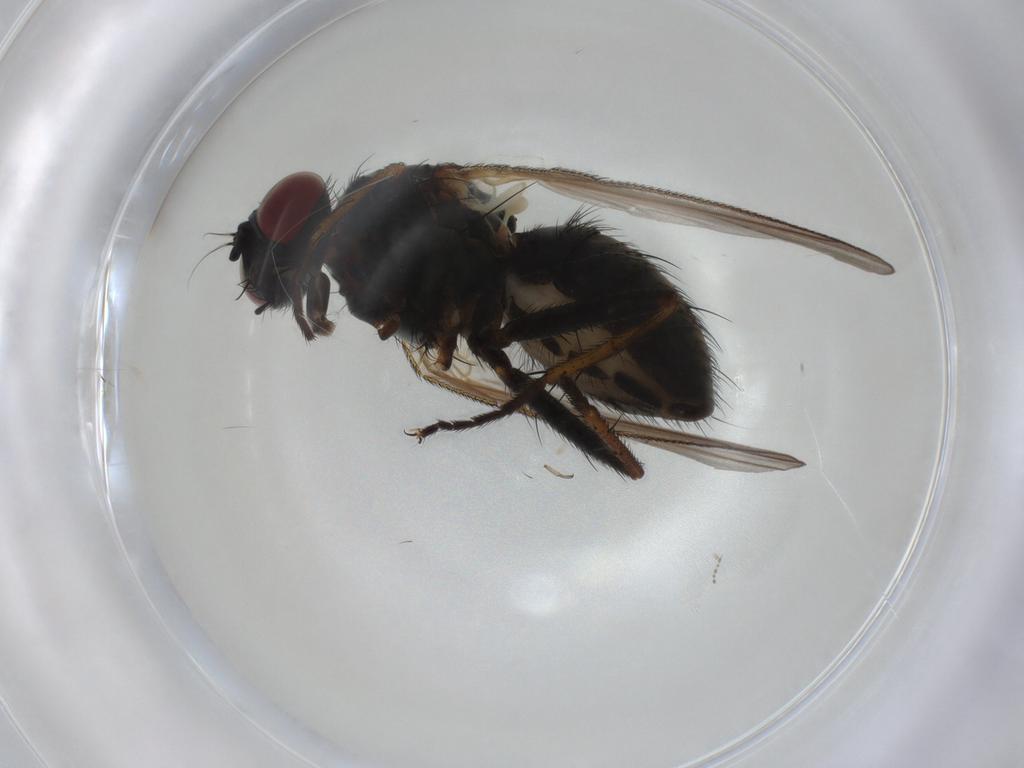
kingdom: Animalia
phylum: Arthropoda
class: Insecta
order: Diptera
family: Muscidae
